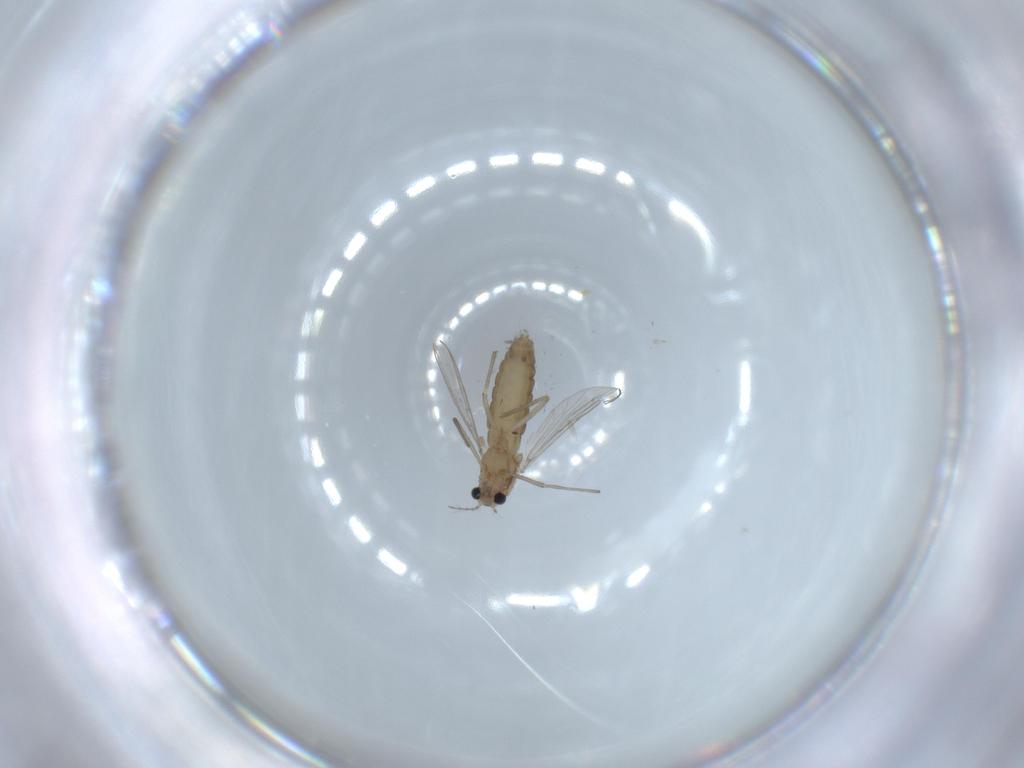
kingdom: Animalia
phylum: Arthropoda
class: Insecta
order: Diptera
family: Chironomidae
